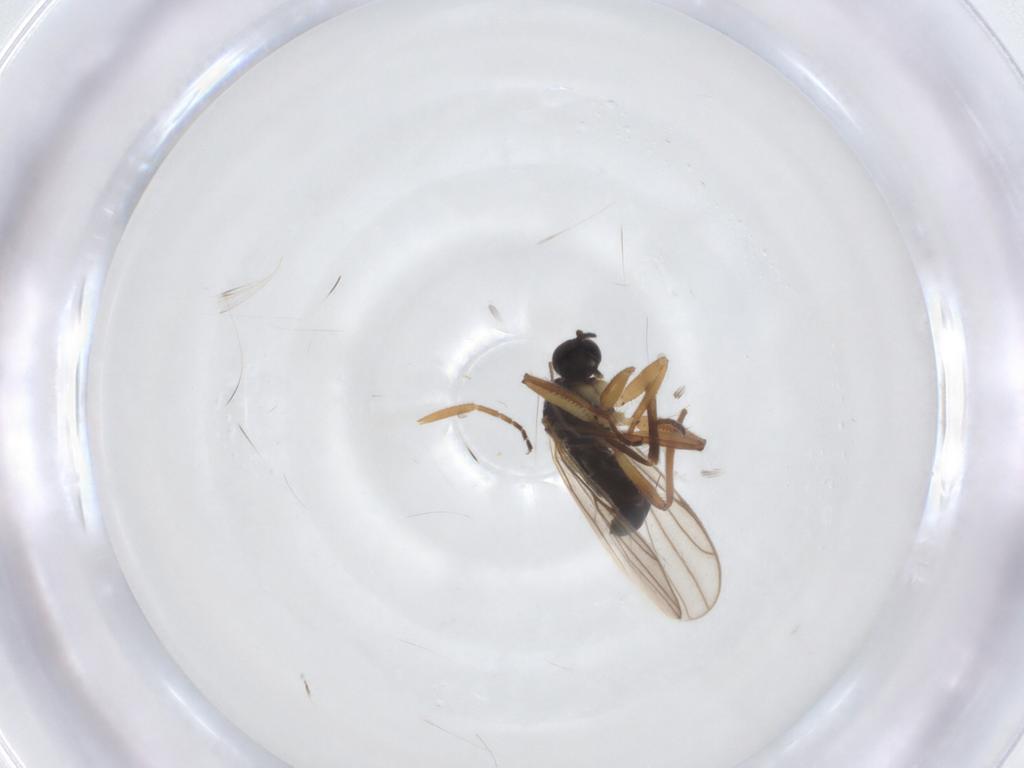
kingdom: Animalia
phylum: Arthropoda
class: Insecta
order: Diptera
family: Hybotidae
